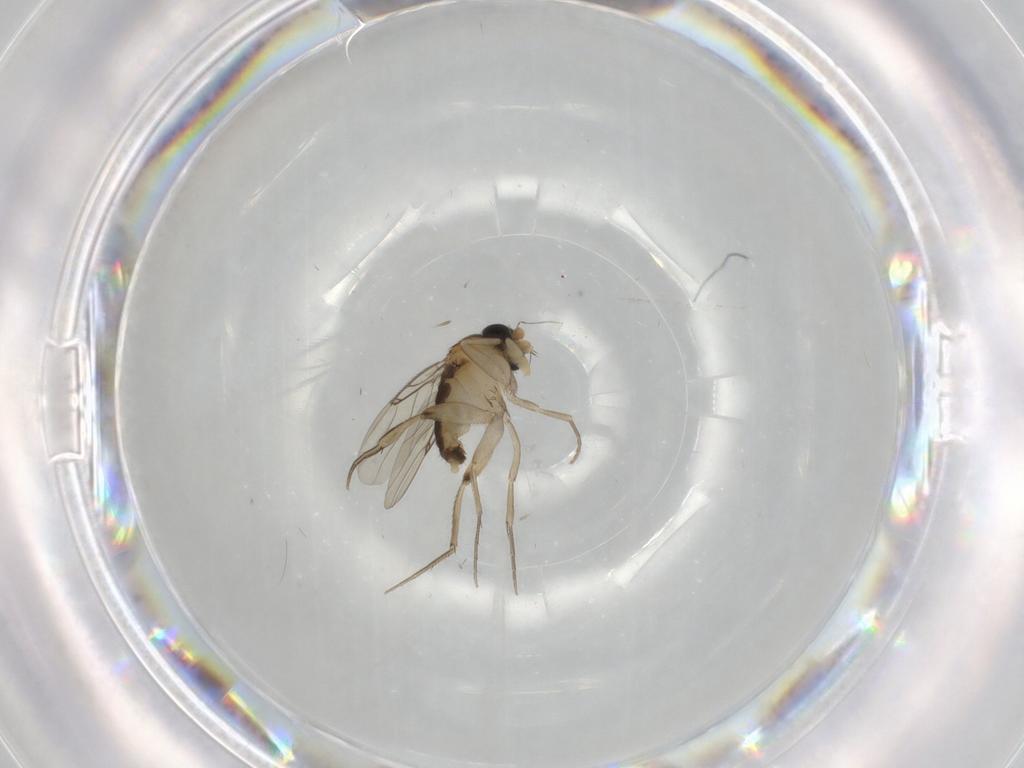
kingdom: Animalia
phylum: Arthropoda
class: Insecta
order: Diptera
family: Phoridae
